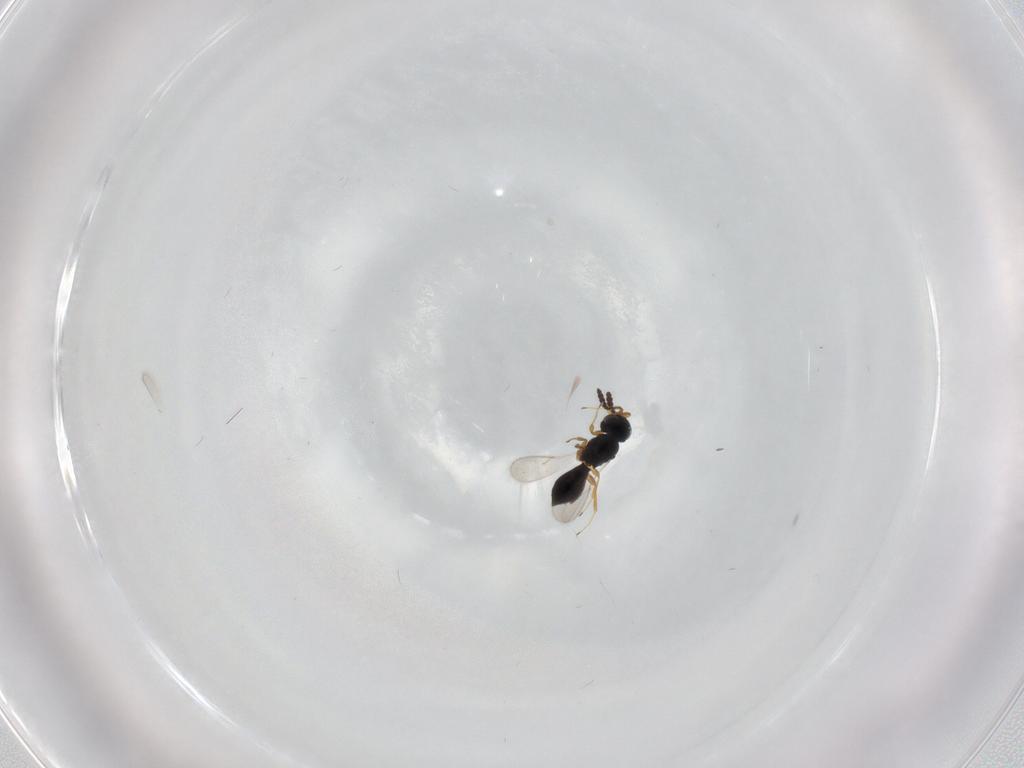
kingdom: Animalia
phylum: Arthropoda
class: Insecta
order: Hymenoptera
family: Scelionidae
